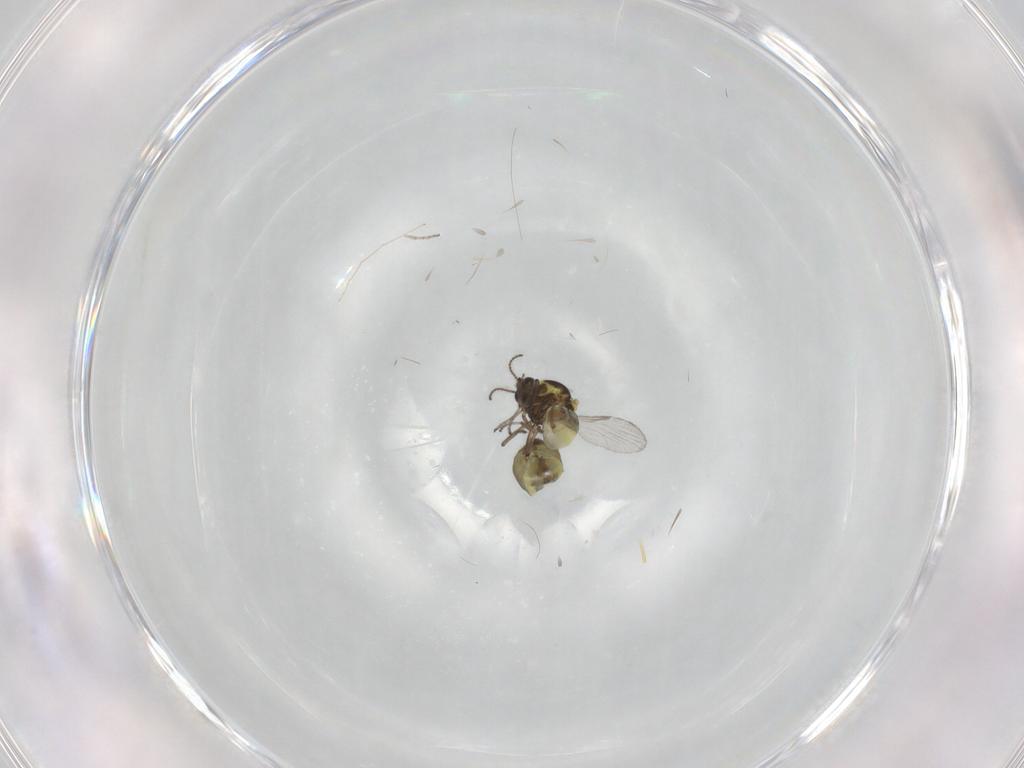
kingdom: Animalia
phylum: Arthropoda
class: Insecta
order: Diptera
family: Ceratopogonidae
